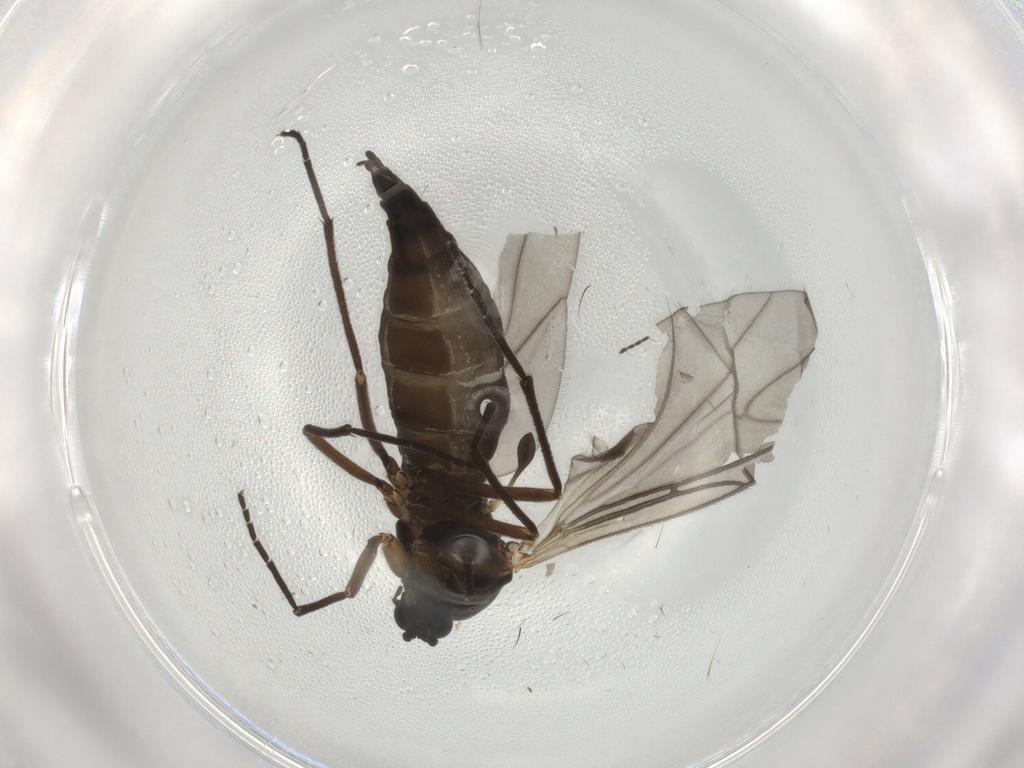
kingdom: Animalia
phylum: Arthropoda
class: Insecta
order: Diptera
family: Sciaridae
